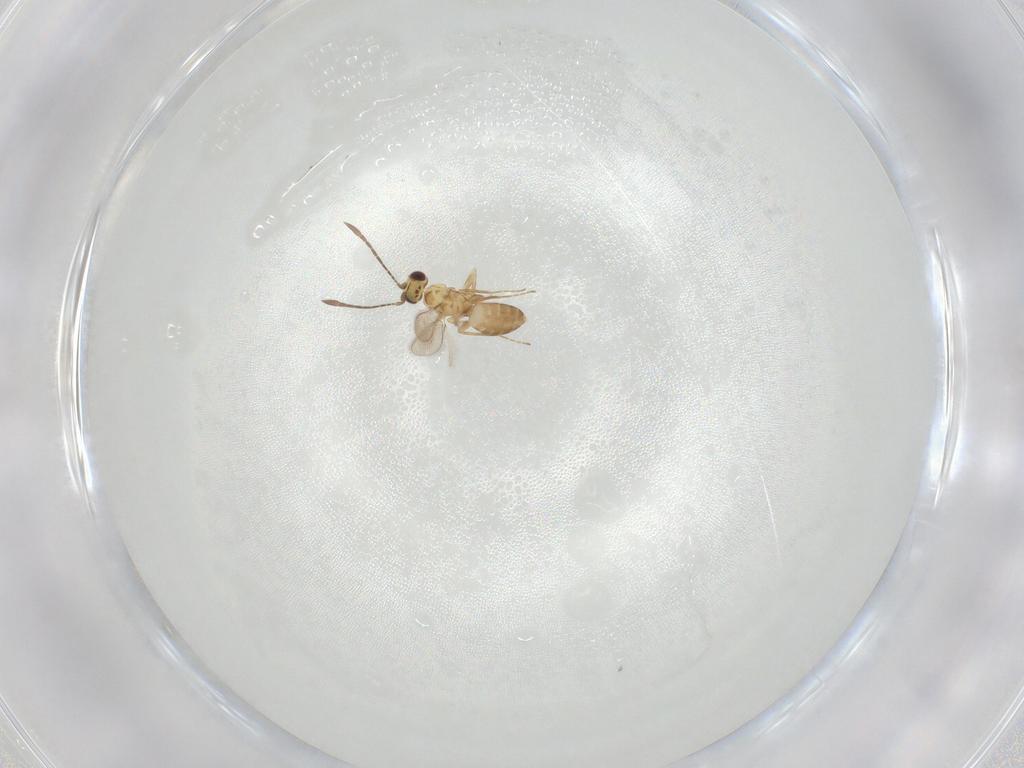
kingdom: Animalia
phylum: Arthropoda
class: Insecta
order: Hymenoptera
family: Mymaridae
